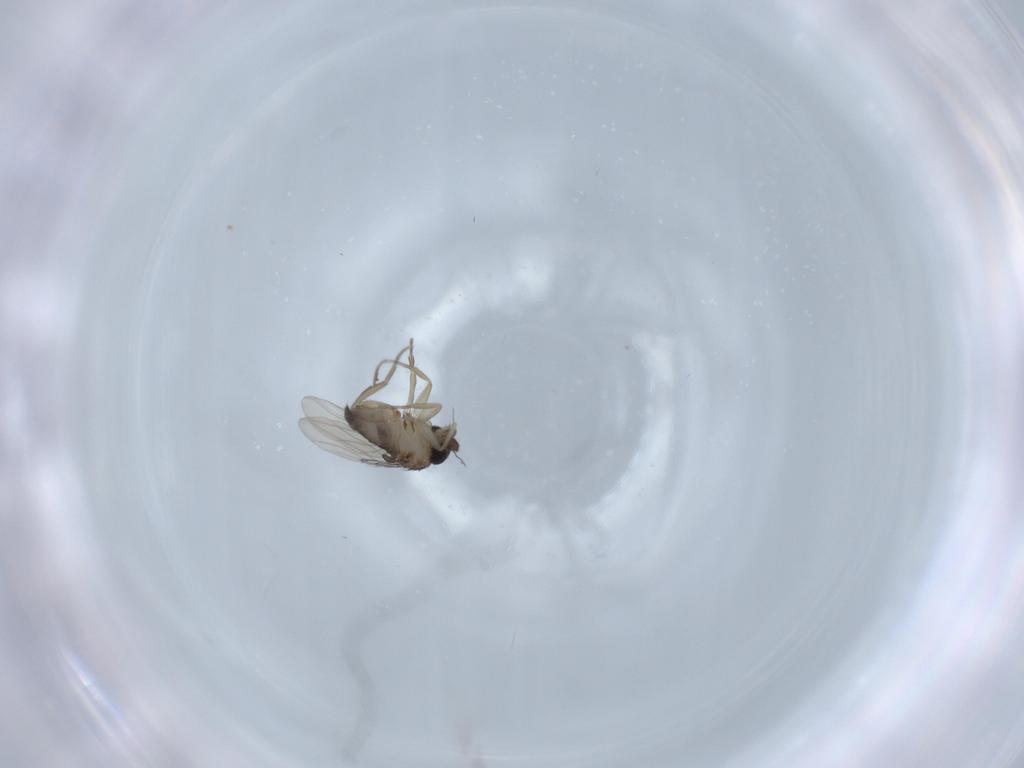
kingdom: Animalia
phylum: Arthropoda
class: Insecta
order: Diptera
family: Phoridae
